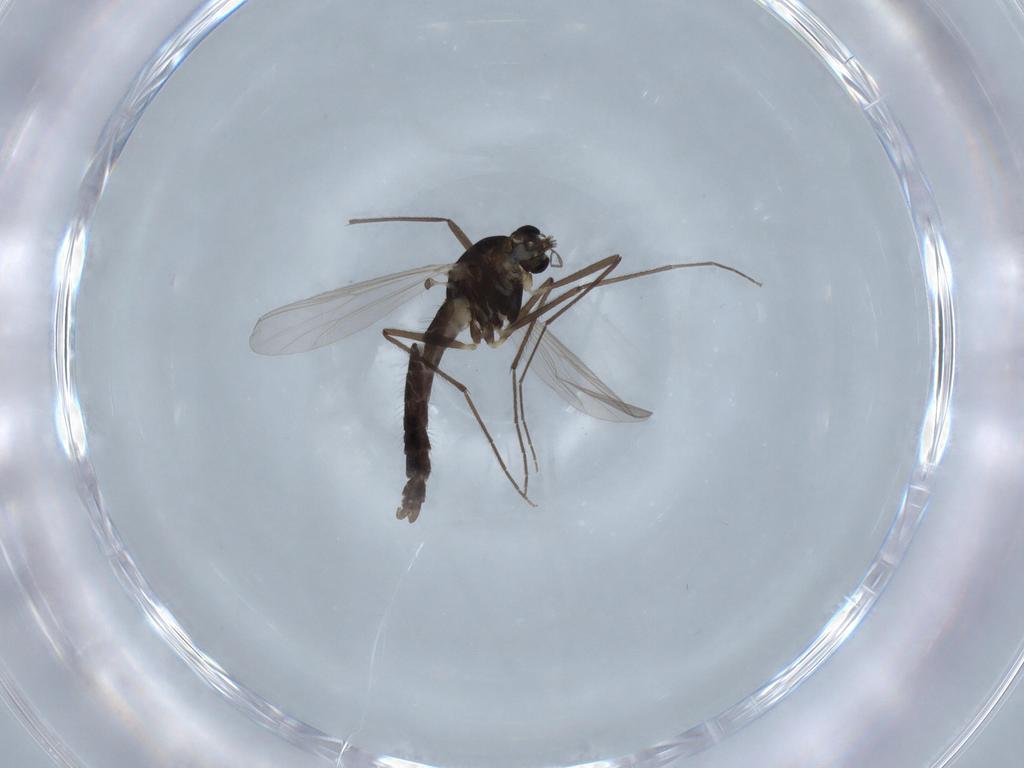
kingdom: Animalia
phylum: Arthropoda
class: Insecta
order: Diptera
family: Chironomidae
